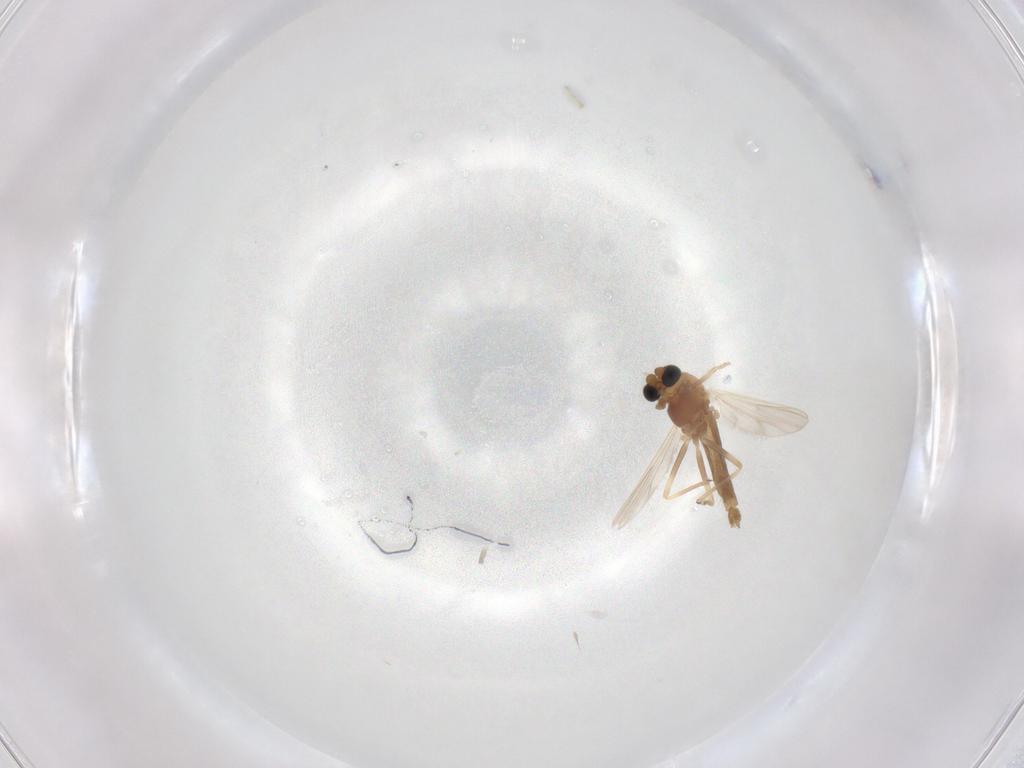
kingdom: Animalia
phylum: Arthropoda
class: Insecta
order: Diptera
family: Chironomidae
